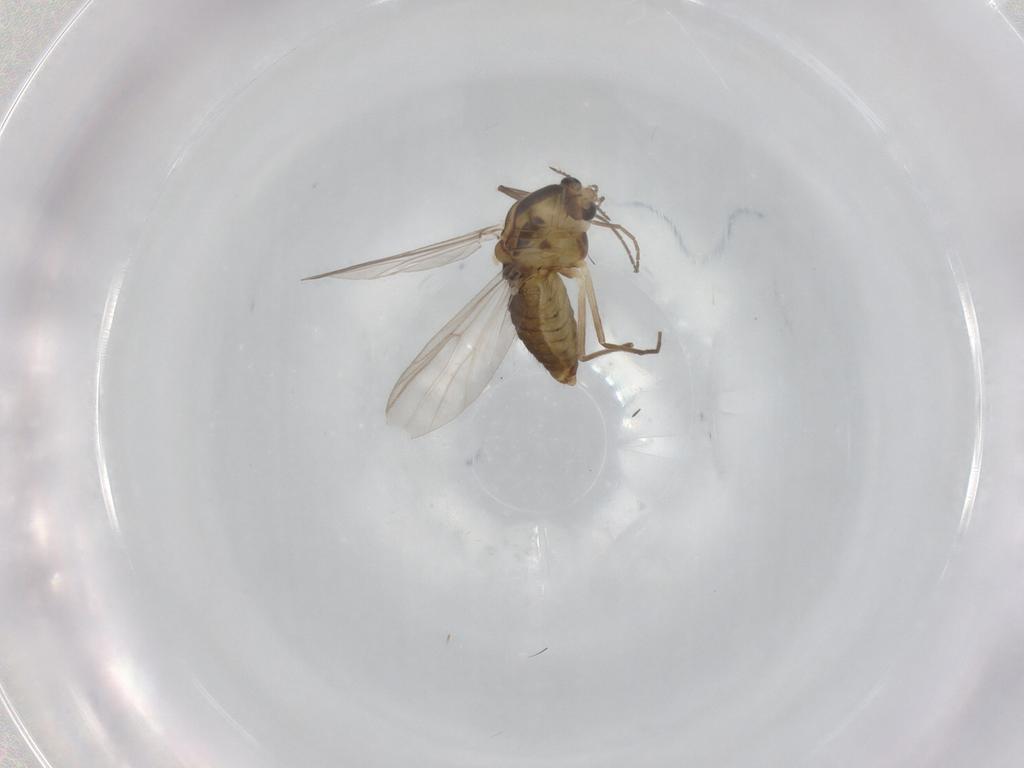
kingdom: Animalia
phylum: Arthropoda
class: Insecta
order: Diptera
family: Chironomidae
